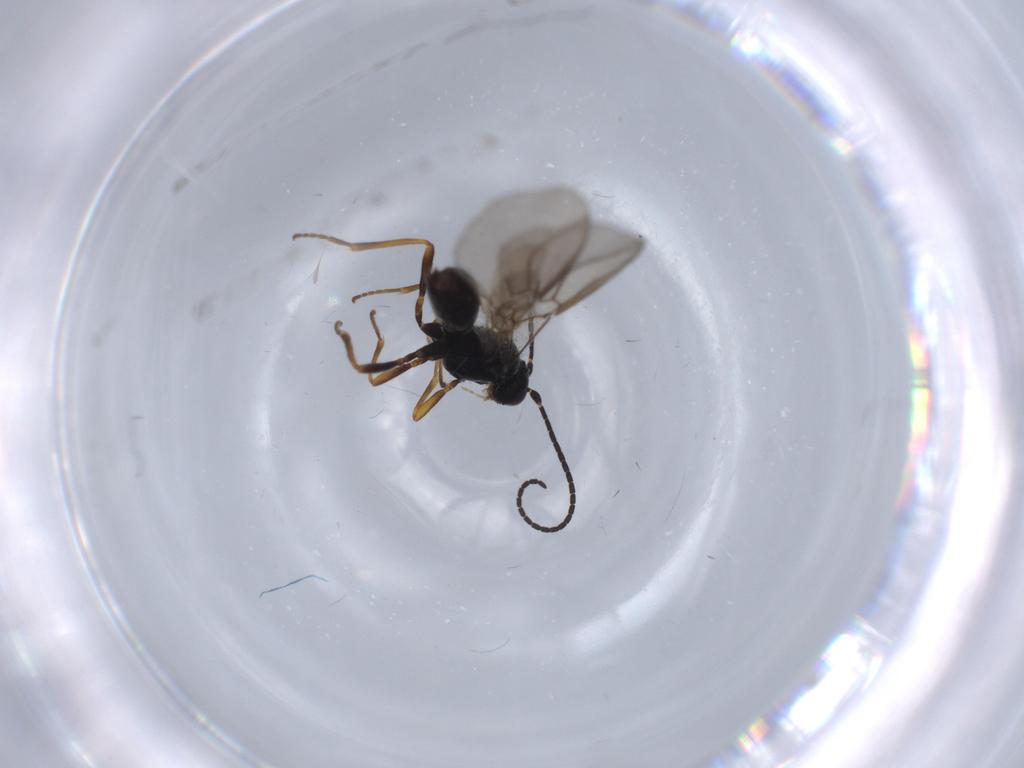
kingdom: Animalia
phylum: Arthropoda
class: Insecta
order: Hymenoptera
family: Braconidae
